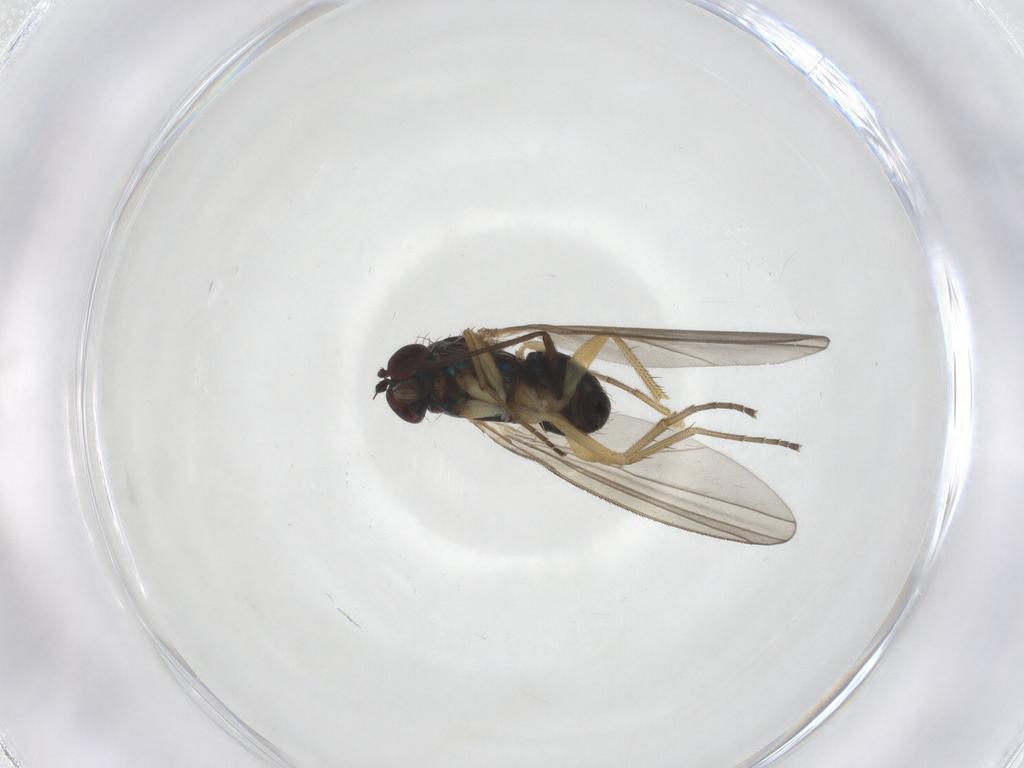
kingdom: Animalia
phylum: Arthropoda
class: Insecta
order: Diptera
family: Dolichopodidae
